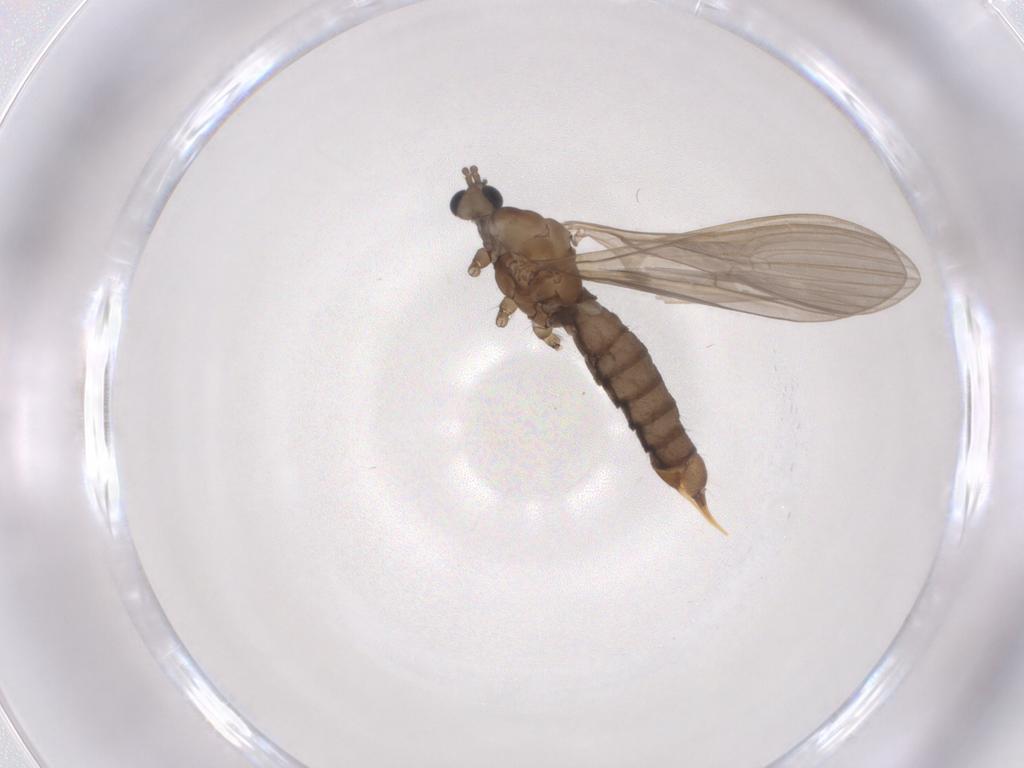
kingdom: Animalia
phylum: Arthropoda
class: Insecta
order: Diptera
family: Limoniidae
